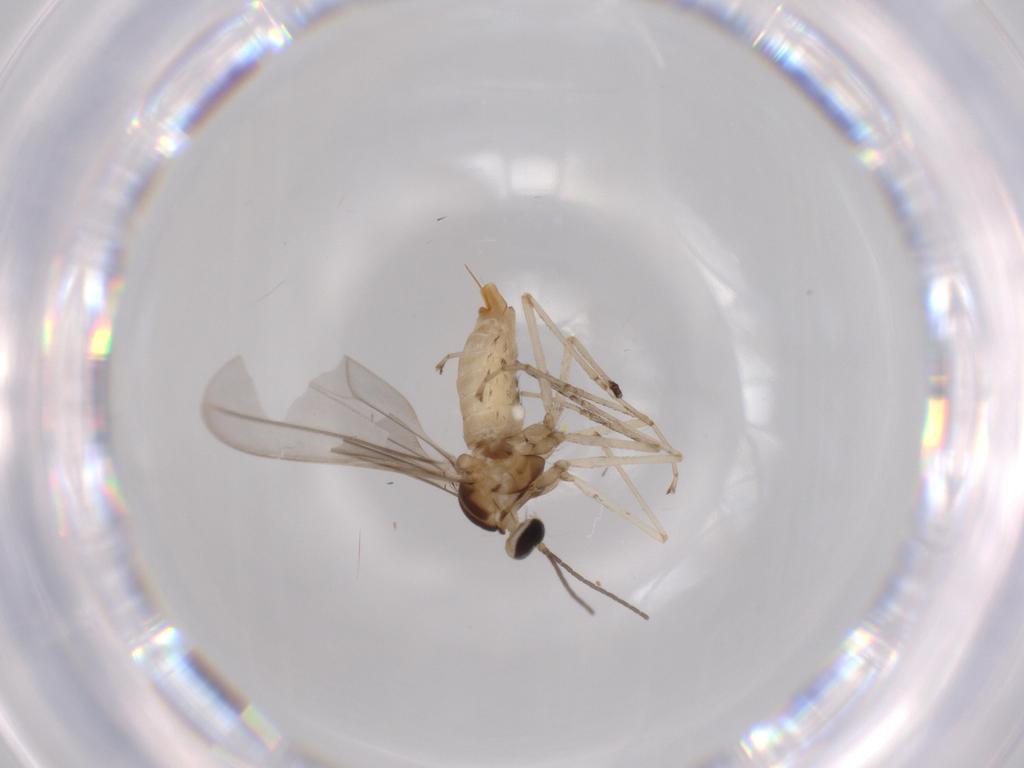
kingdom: Animalia
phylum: Arthropoda
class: Insecta
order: Diptera
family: Cecidomyiidae
